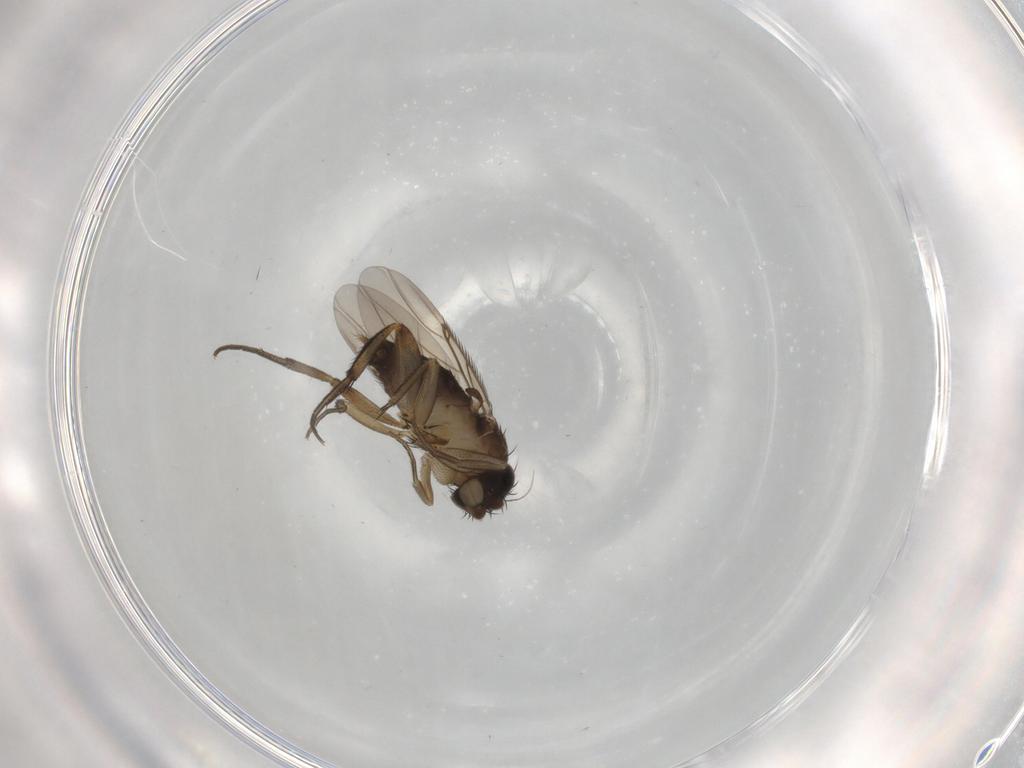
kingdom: Animalia
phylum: Arthropoda
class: Insecta
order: Diptera
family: Phoridae
